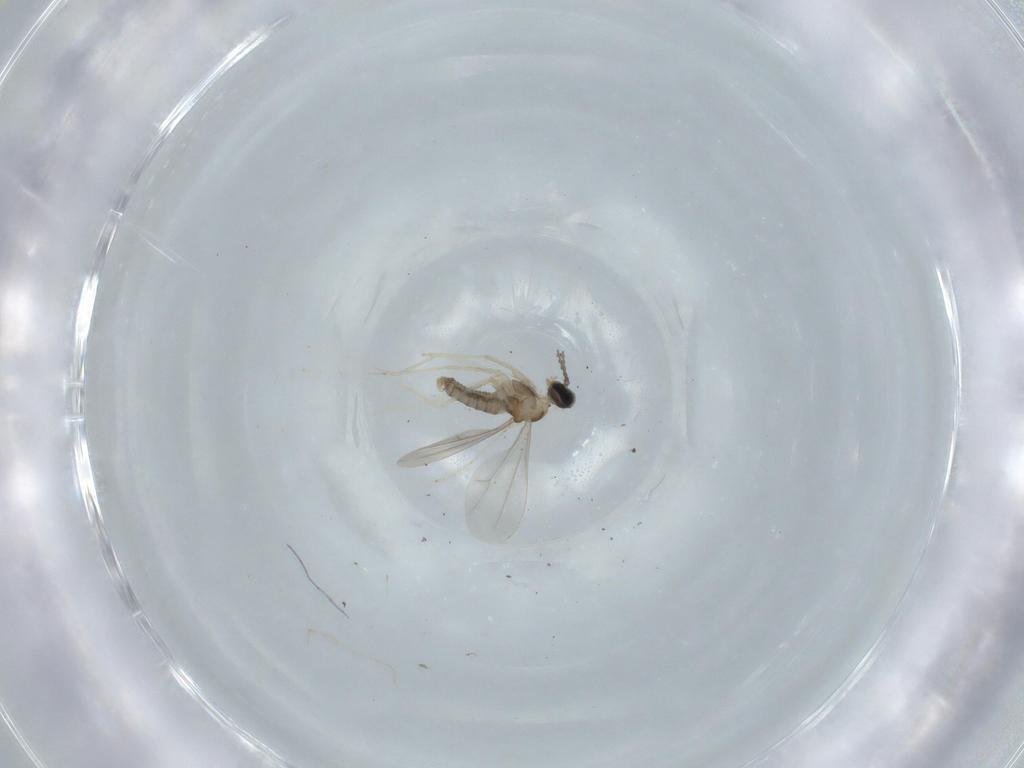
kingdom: Animalia
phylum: Arthropoda
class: Insecta
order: Diptera
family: Cecidomyiidae
